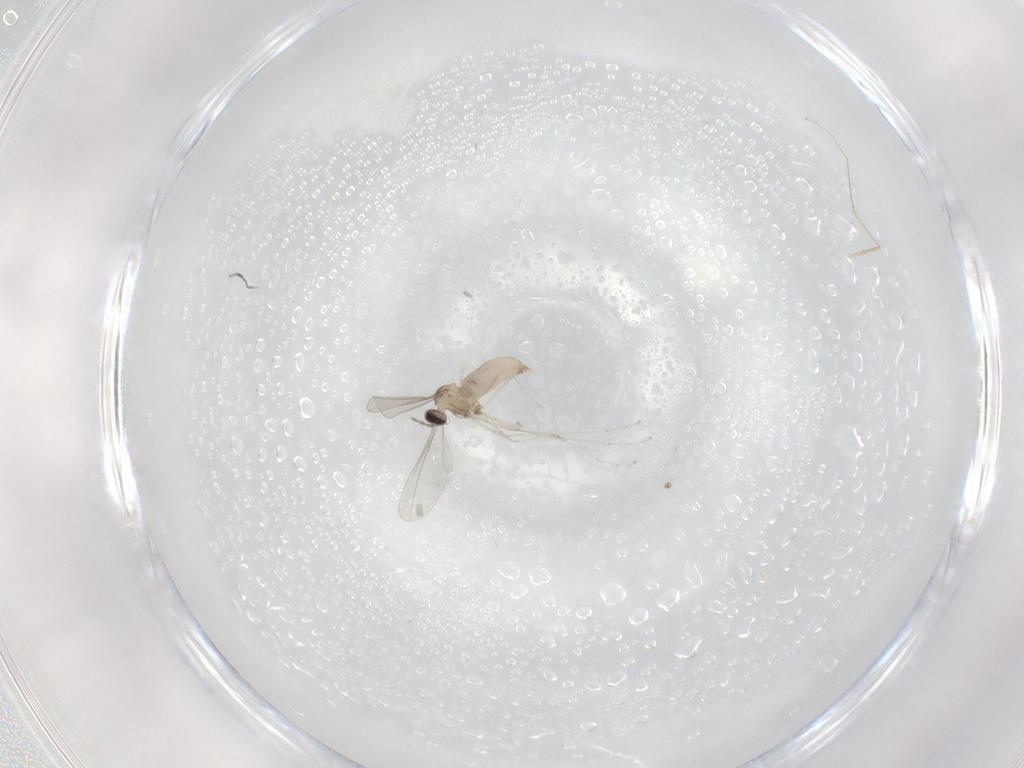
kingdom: Animalia
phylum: Arthropoda
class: Insecta
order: Diptera
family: Cecidomyiidae
